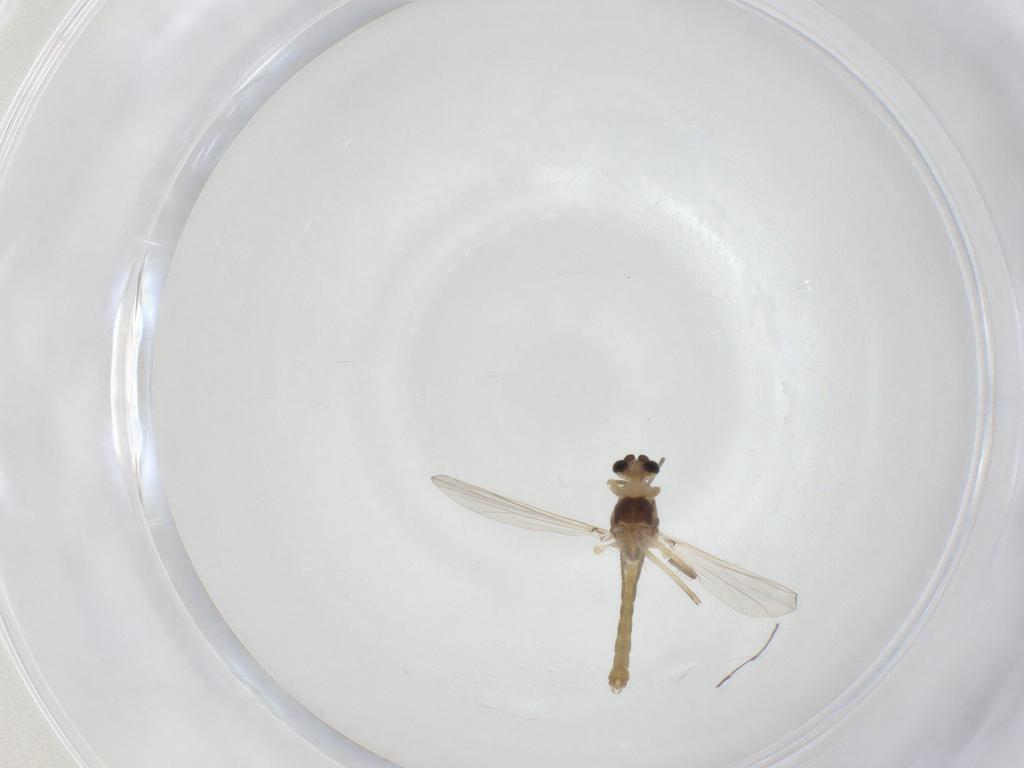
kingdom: Animalia
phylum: Arthropoda
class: Insecta
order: Diptera
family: Chironomidae
